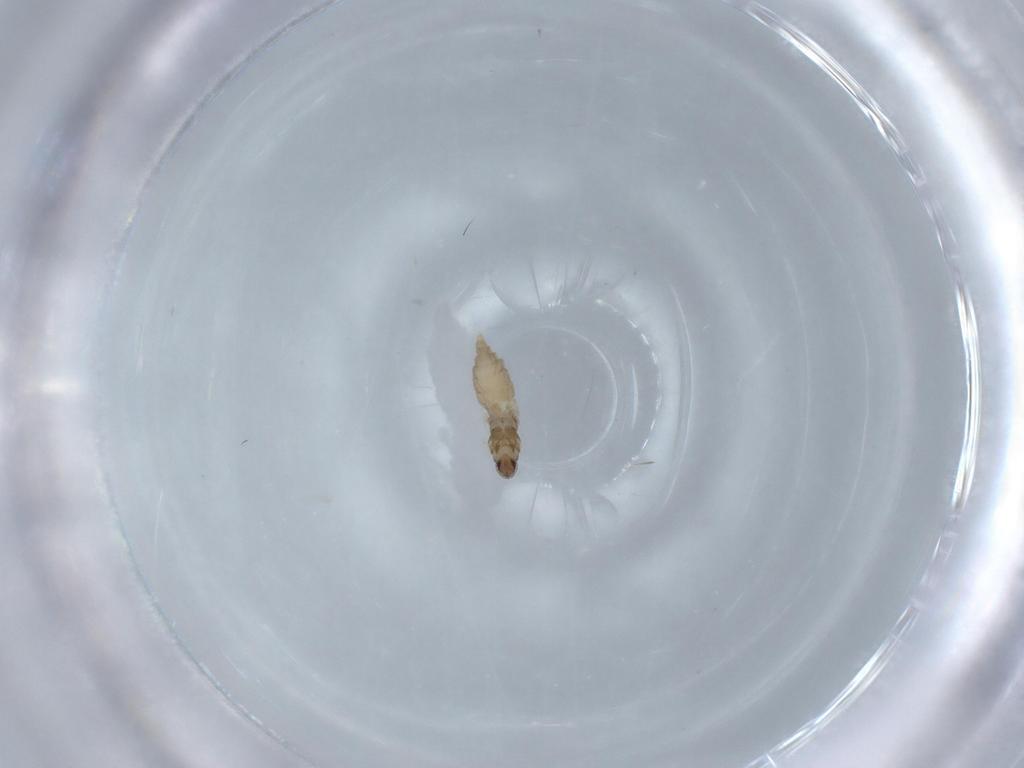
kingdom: Animalia
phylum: Arthropoda
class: Insecta
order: Diptera
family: Cecidomyiidae
